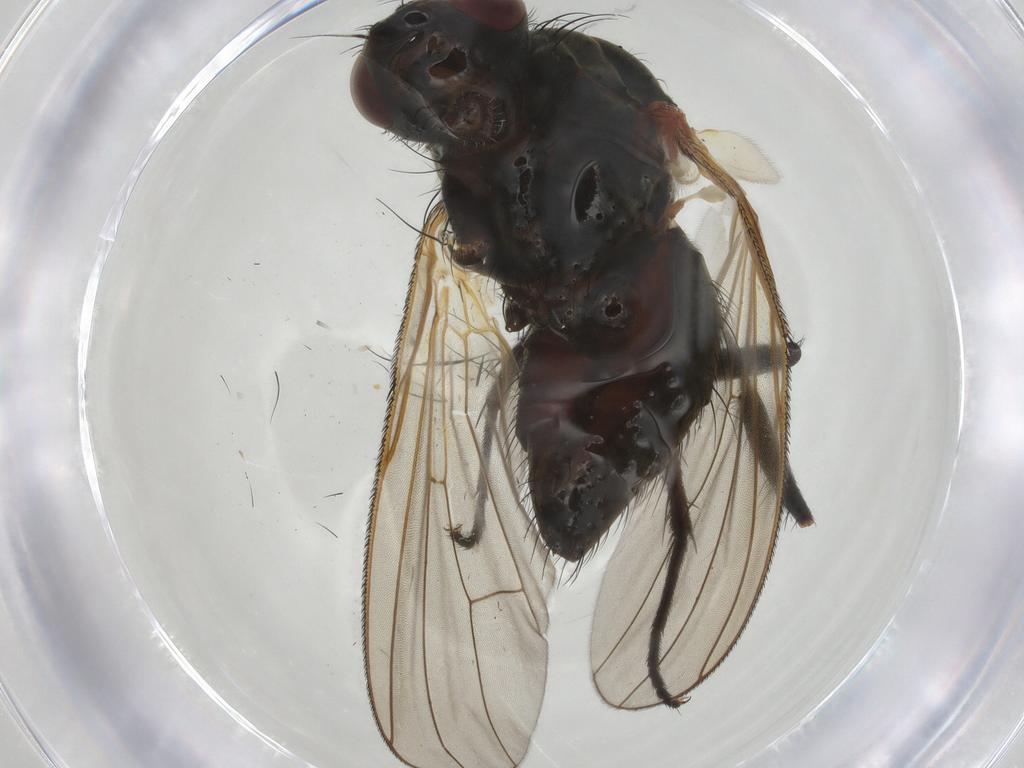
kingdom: Animalia
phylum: Arthropoda
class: Insecta
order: Diptera
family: Anthomyiidae
